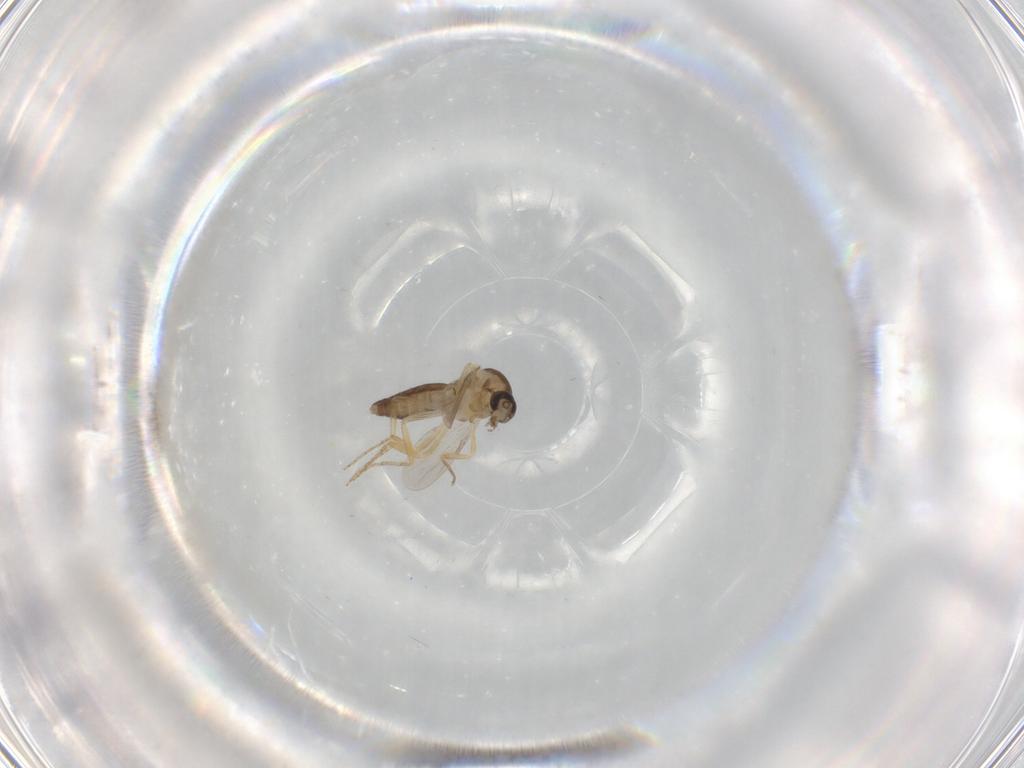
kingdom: Animalia
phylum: Arthropoda
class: Insecta
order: Diptera
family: Ceratopogonidae
